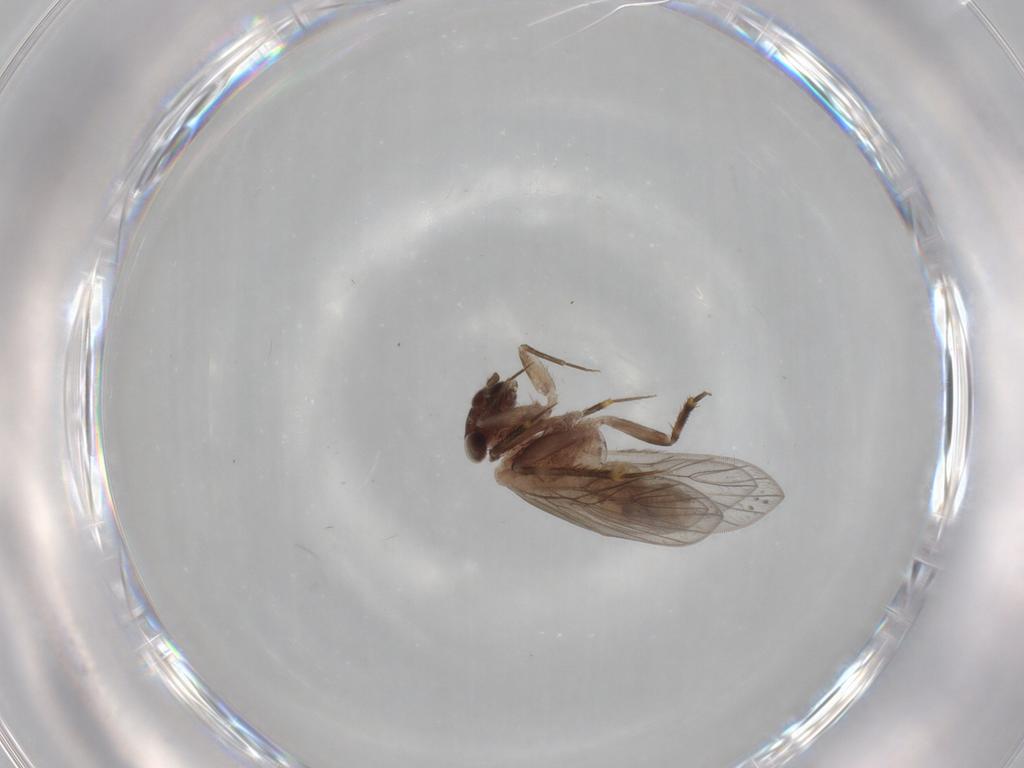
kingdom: Animalia
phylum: Arthropoda
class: Insecta
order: Psocodea
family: Lepidopsocidae
